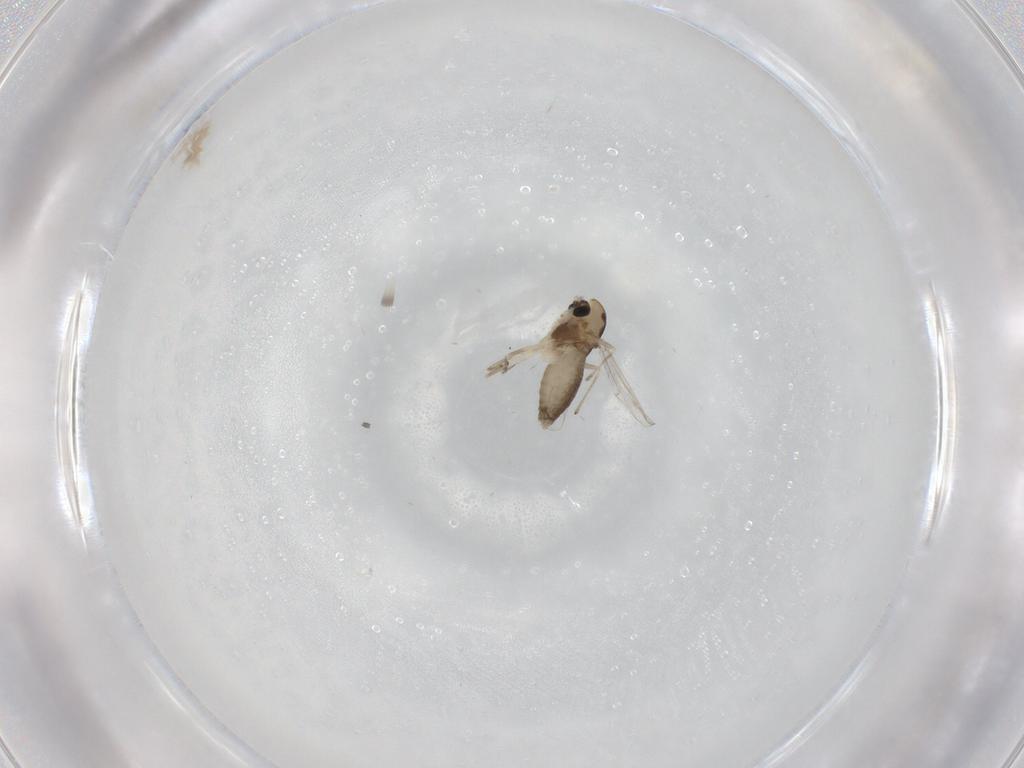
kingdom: Animalia
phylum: Arthropoda
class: Insecta
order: Diptera
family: Chironomidae
